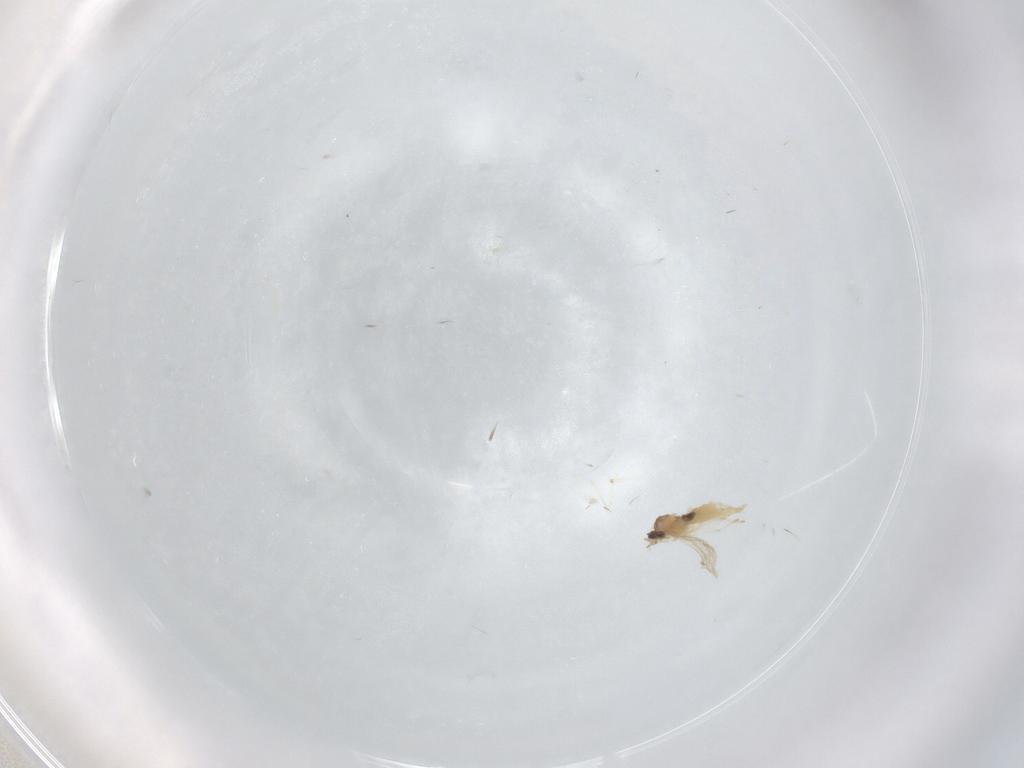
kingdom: Animalia
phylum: Arthropoda
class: Insecta
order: Diptera
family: Cecidomyiidae
